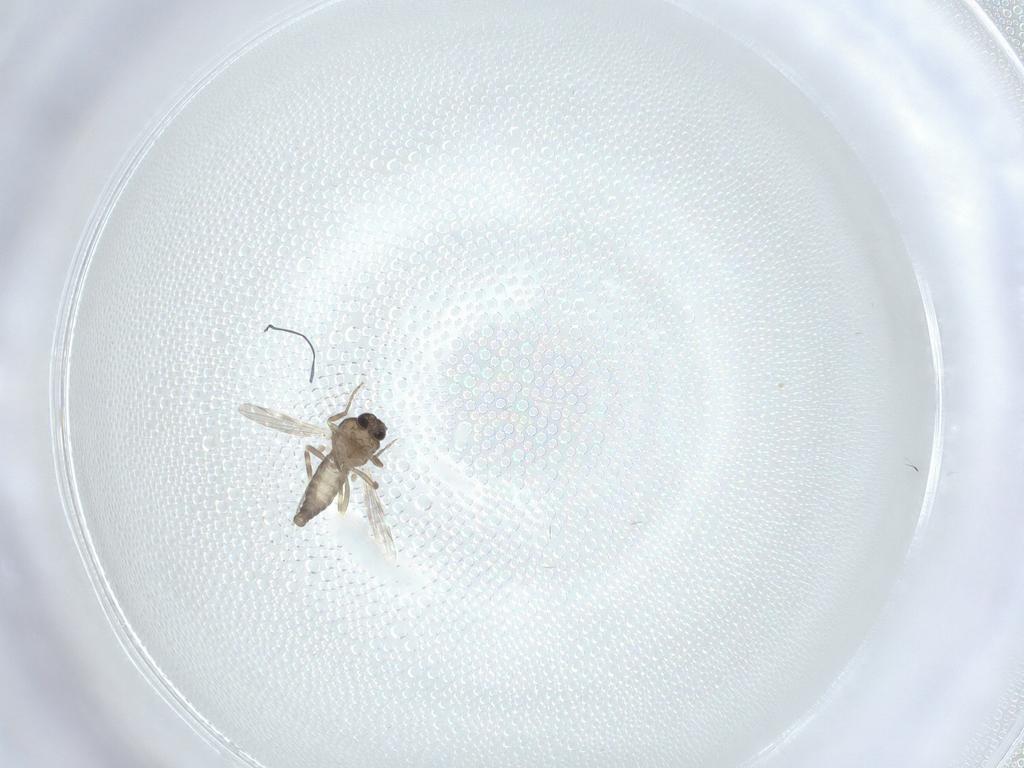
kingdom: Animalia
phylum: Arthropoda
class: Insecta
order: Diptera
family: Ceratopogonidae
